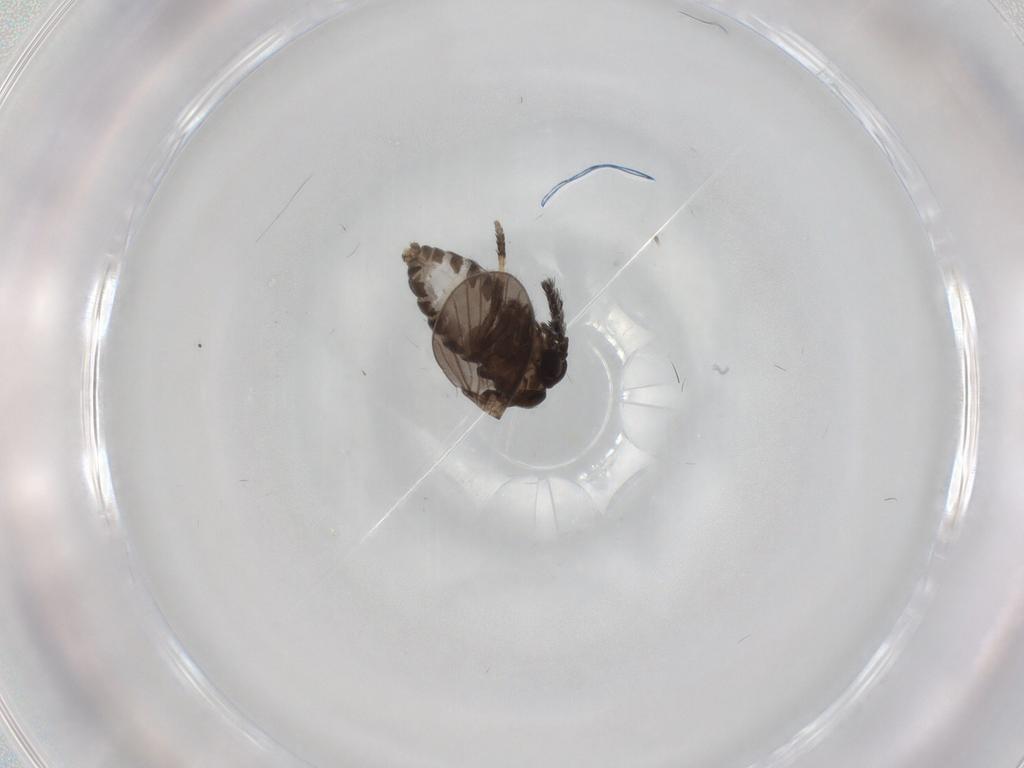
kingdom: Animalia
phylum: Arthropoda
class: Insecta
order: Diptera
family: Psychodidae
